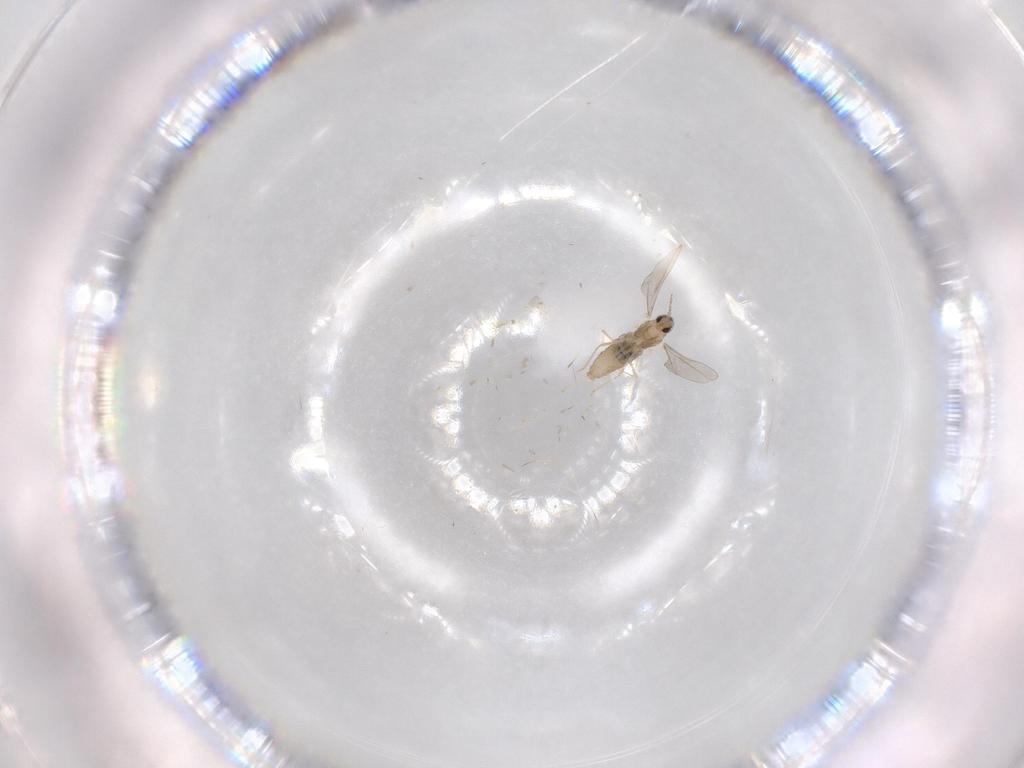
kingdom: Animalia
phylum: Arthropoda
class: Insecta
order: Diptera
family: Cecidomyiidae
